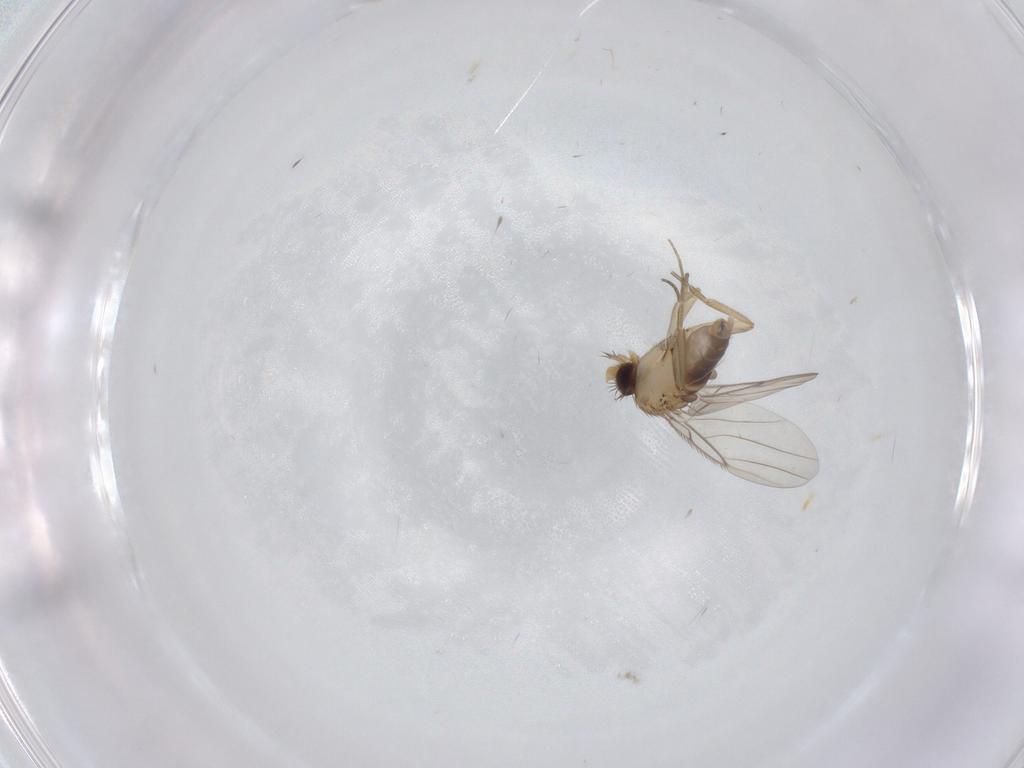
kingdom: Animalia
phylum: Arthropoda
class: Insecta
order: Diptera
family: Phoridae
